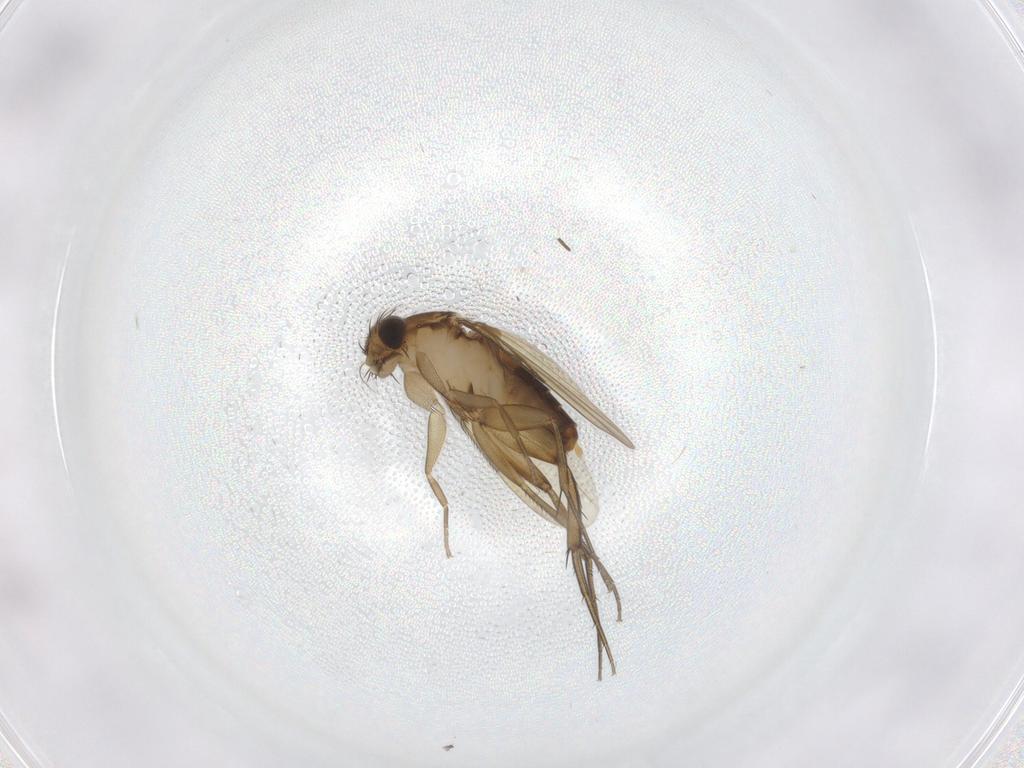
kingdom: Animalia
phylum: Arthropoda
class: Insecta
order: Diptera
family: Phoridae
